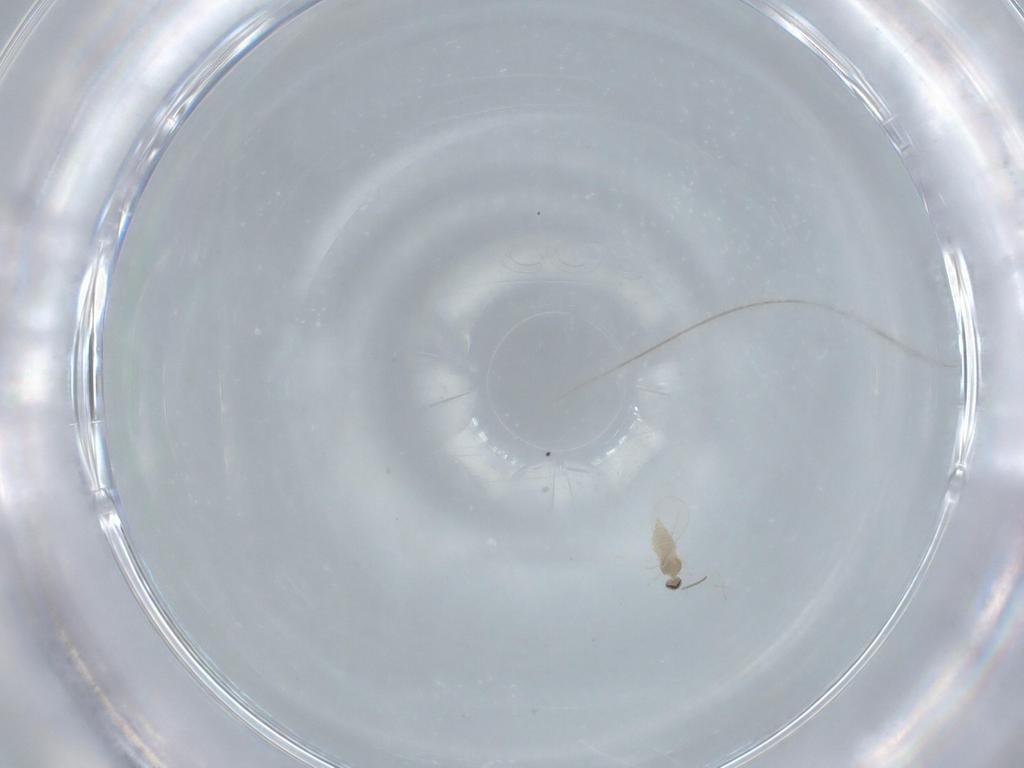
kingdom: Animalia
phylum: Arthropoda
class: Insecta
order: Diptera
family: Cecidomyiidae
